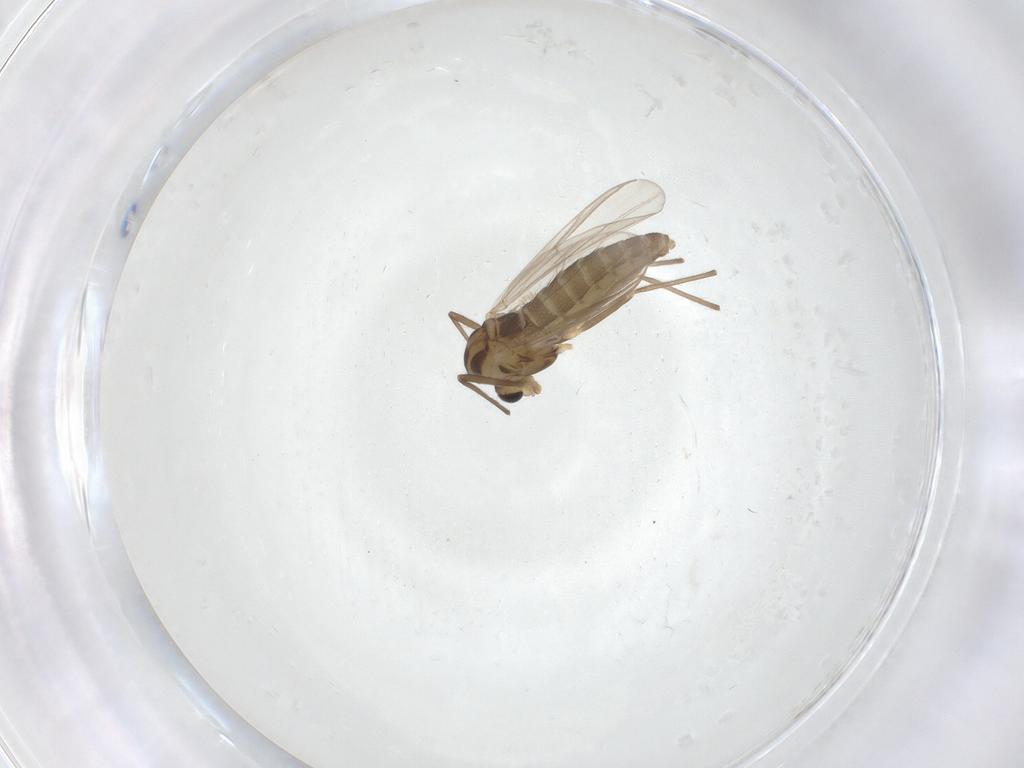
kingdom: Animalia
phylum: Arthropoda
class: Insecta
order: Diptera
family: Chironomidae
